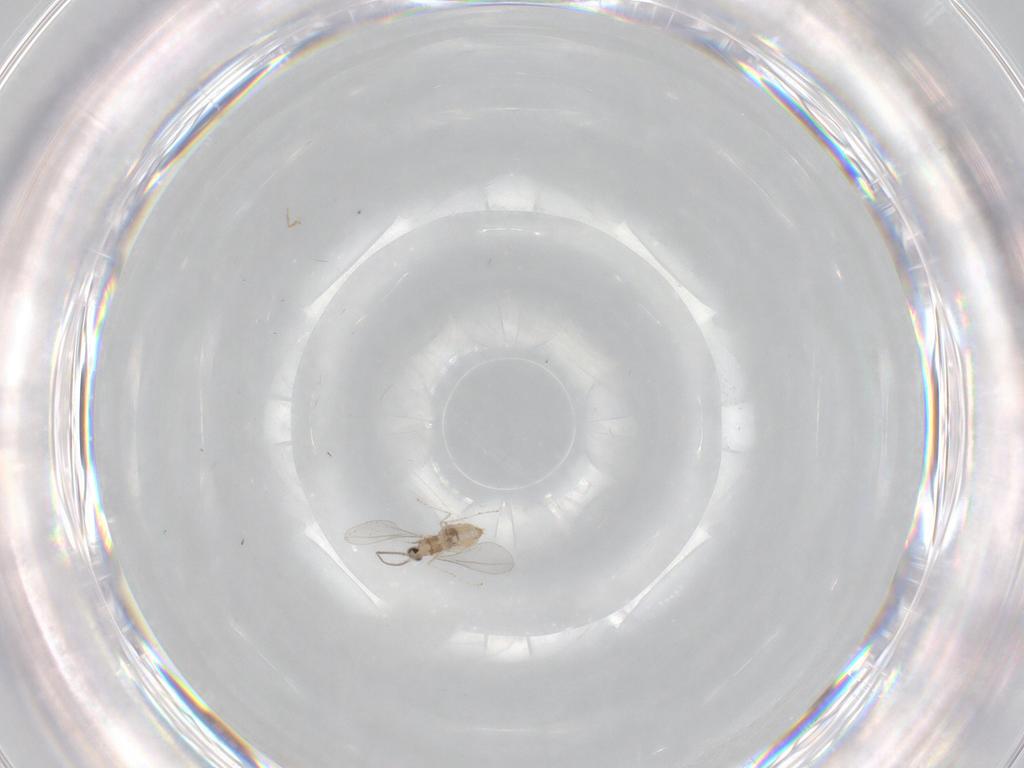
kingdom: Animalia
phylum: Arthropoda
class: Insecta
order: Diptera
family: Cecidomyiidae
